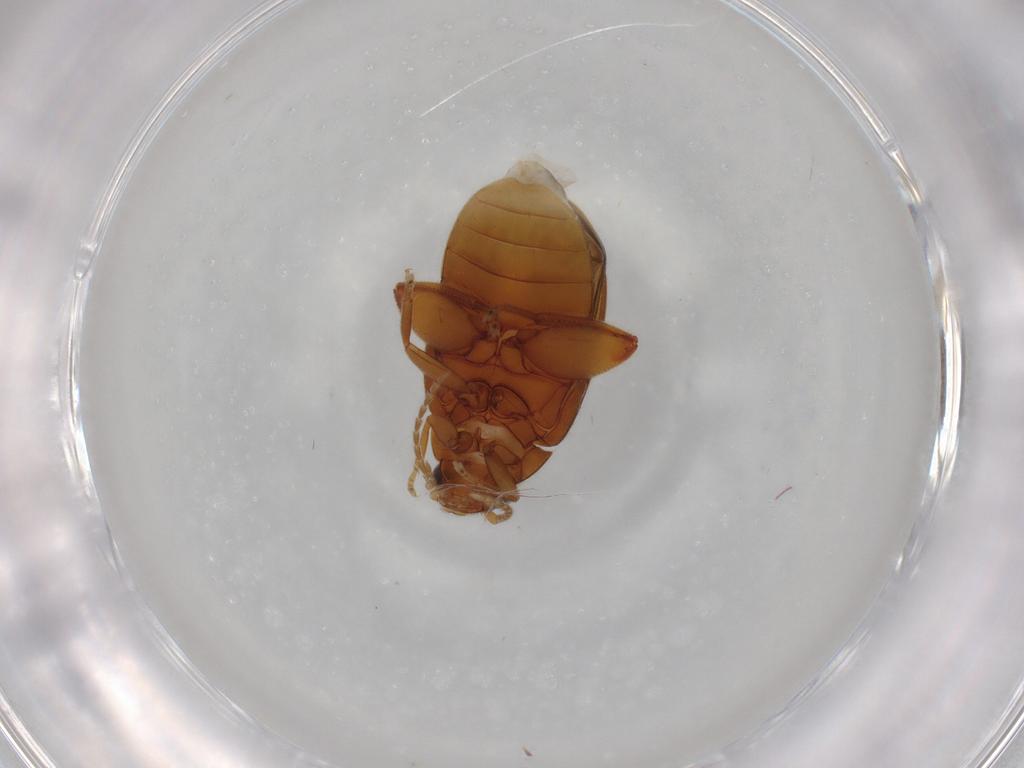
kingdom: Animalia
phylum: Arthropoda
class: Insecta
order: Coleoptera
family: Scirtidae
